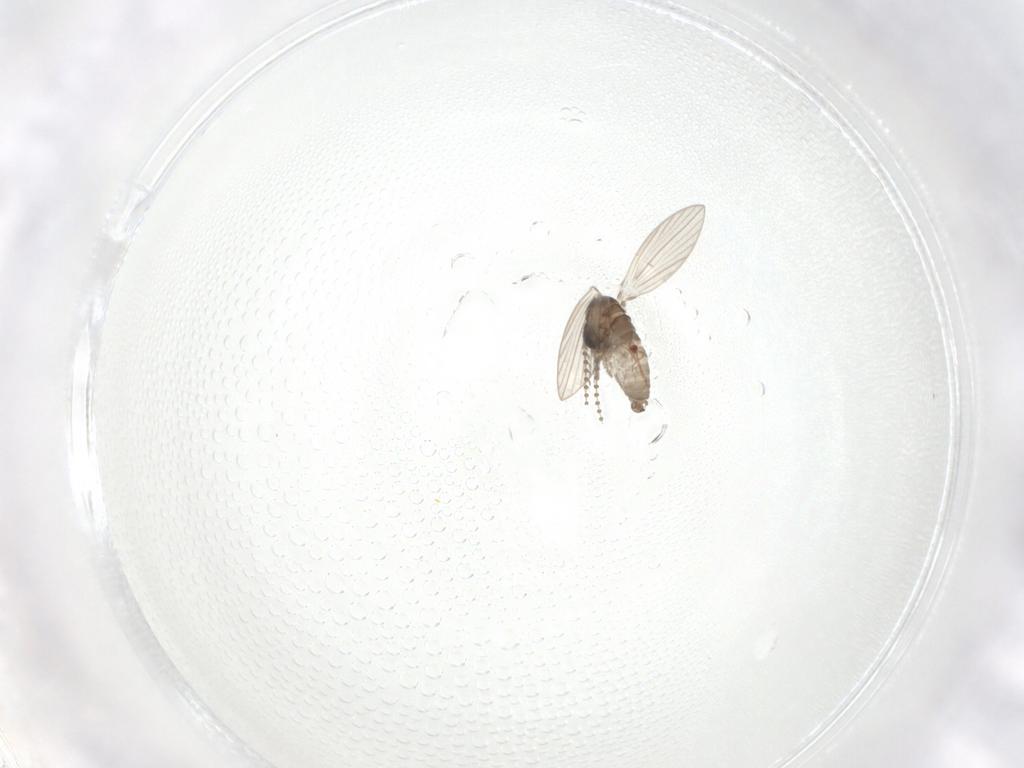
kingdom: Animalia
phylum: Arthropoda
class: Insecta
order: Diptera
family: Psychodidae
